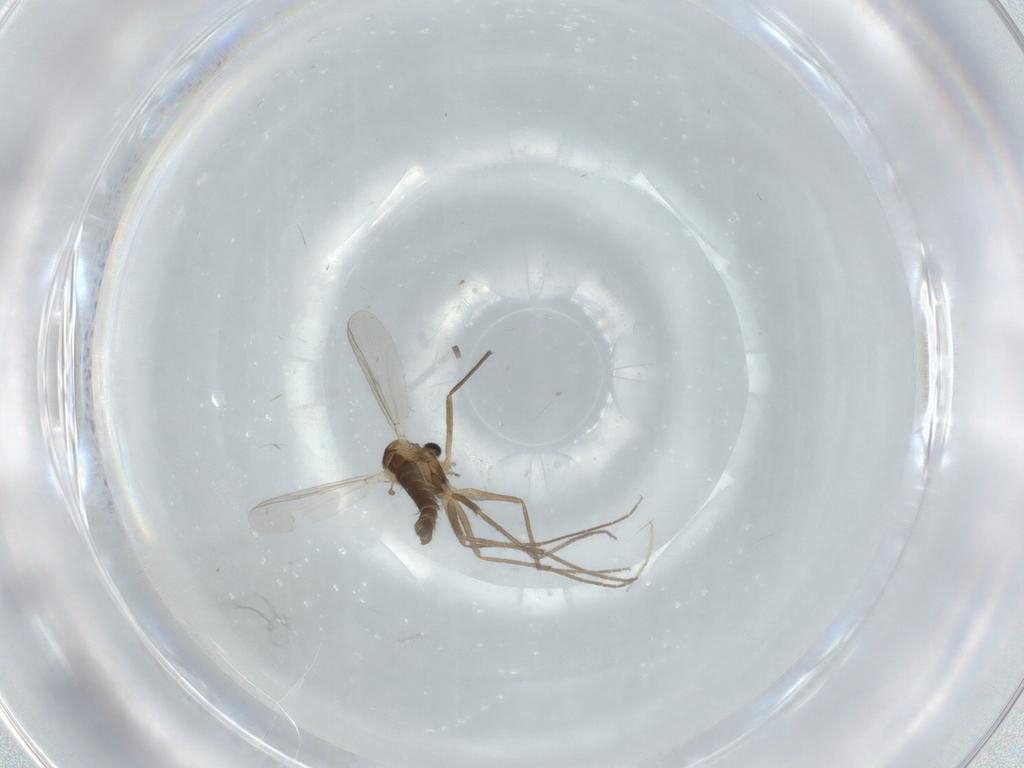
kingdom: Animalia
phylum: Arthropoda
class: Insecta
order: Diptera
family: Chironomidae
